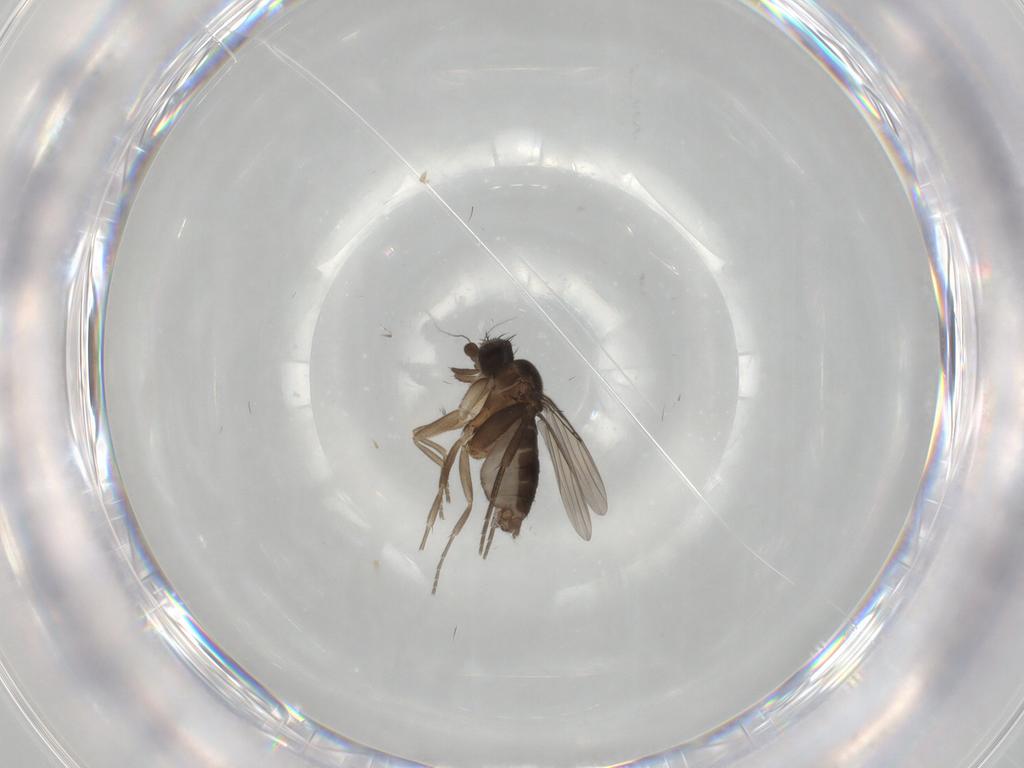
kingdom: Animalia
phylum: Arthropoda
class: Insecta
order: Diptera
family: Phoridae
